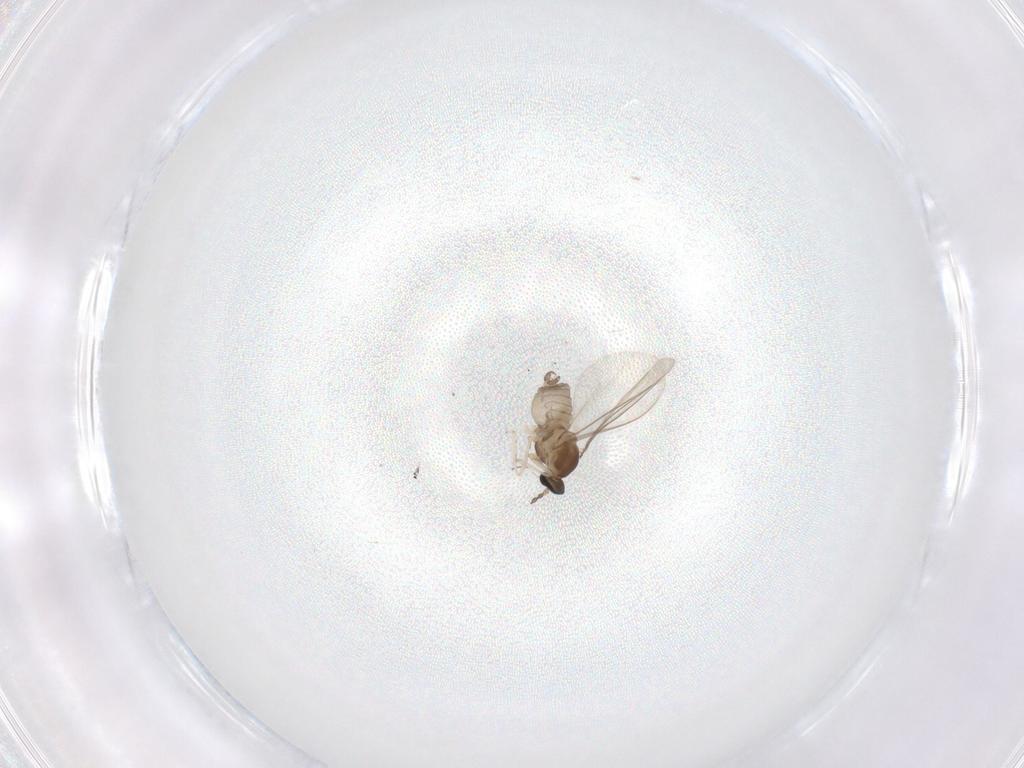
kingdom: Animalia
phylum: Arthropoda
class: Insecta
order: Diptera
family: Cecidomyiidae
